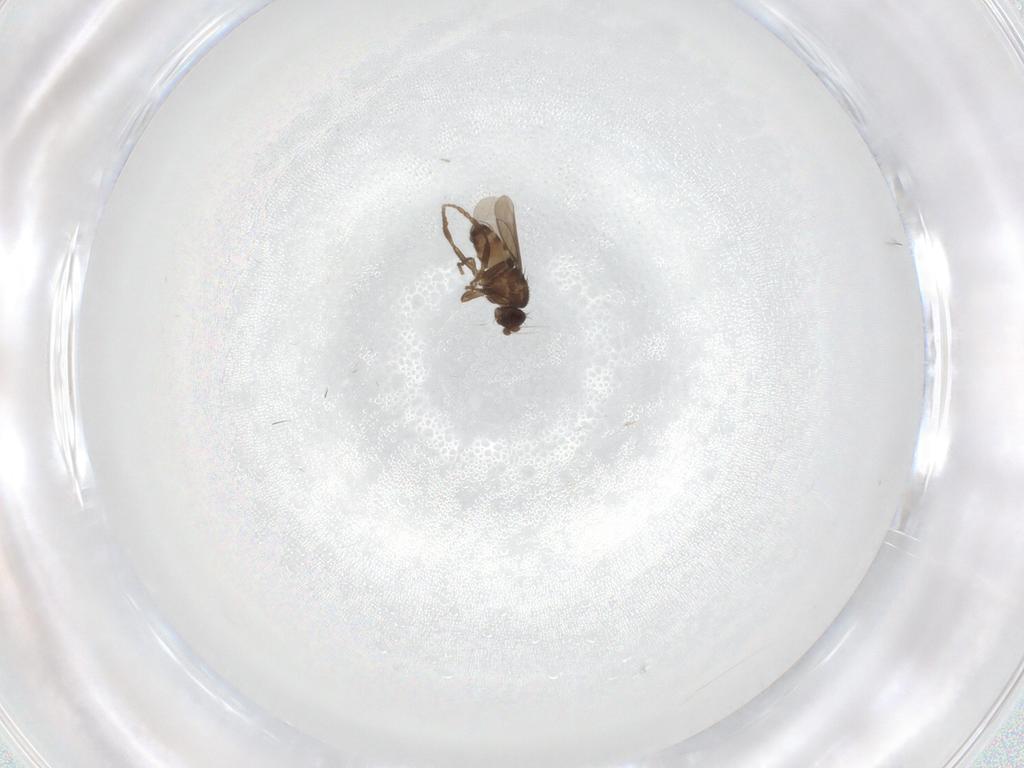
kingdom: Animalia
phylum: Arthropoda
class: Insecta
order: Diptera
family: Sphaeroceridae
